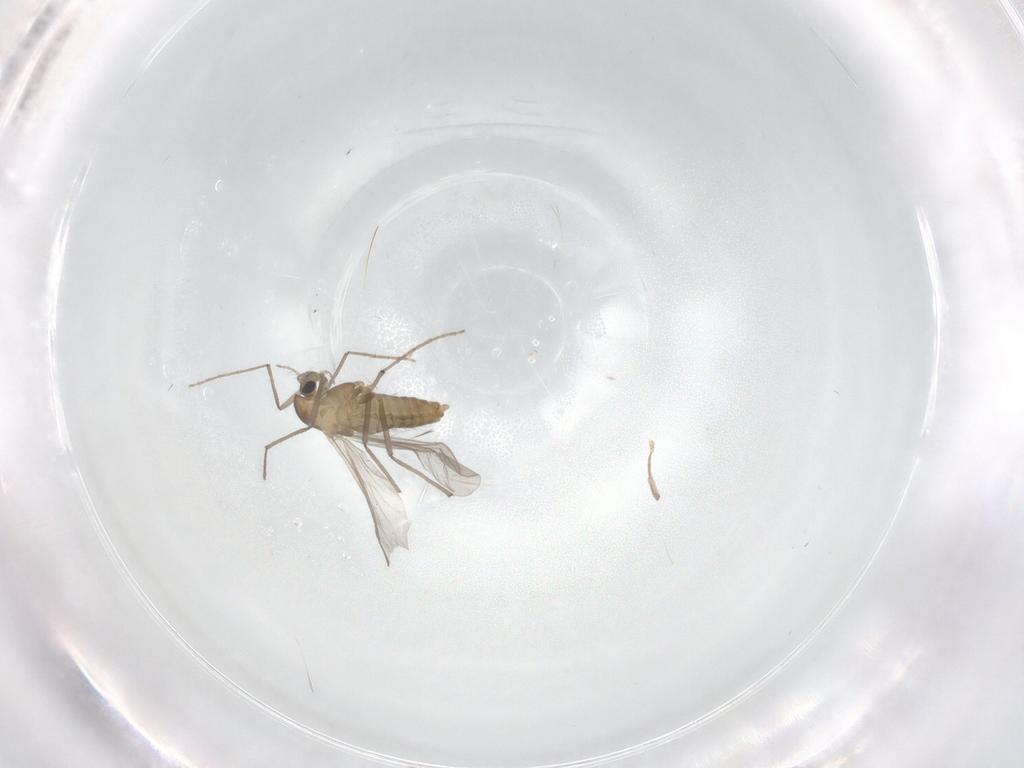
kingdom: Animalia
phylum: Arthropoda
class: Insecta
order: Diptera
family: Chironomidae
